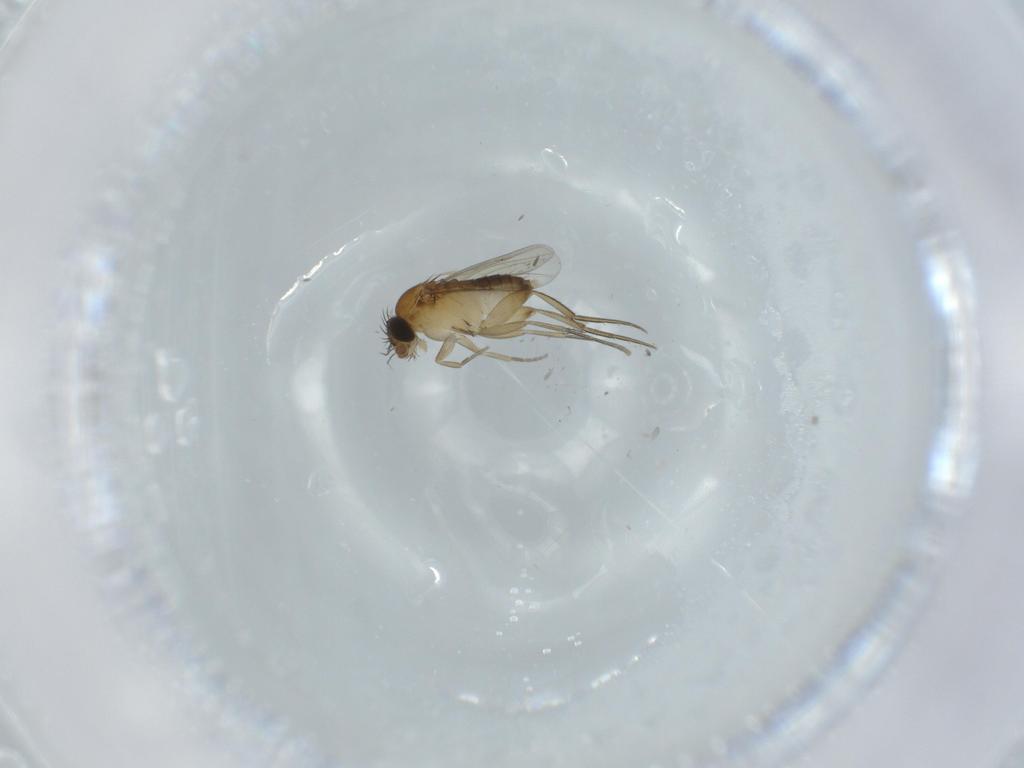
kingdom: Animalia
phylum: Arthropoda
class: Insecta
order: Diptera
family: Phoridae
